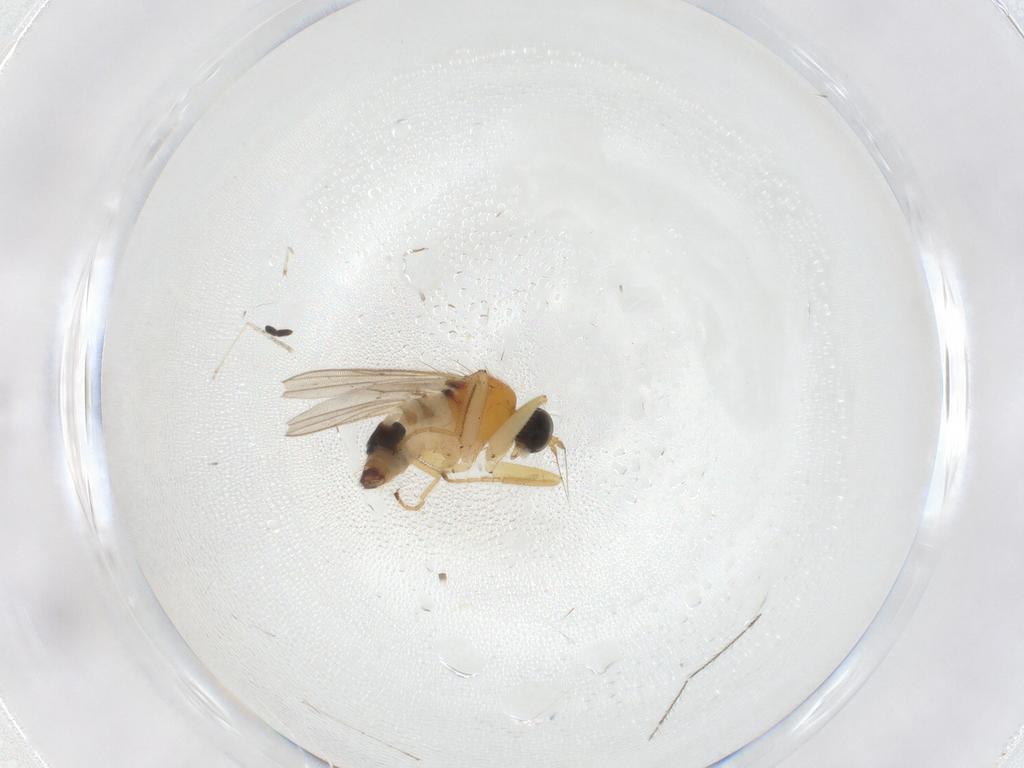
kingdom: Animalia
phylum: Arthropoda
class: Insecta
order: Diptera
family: Hybotidae
